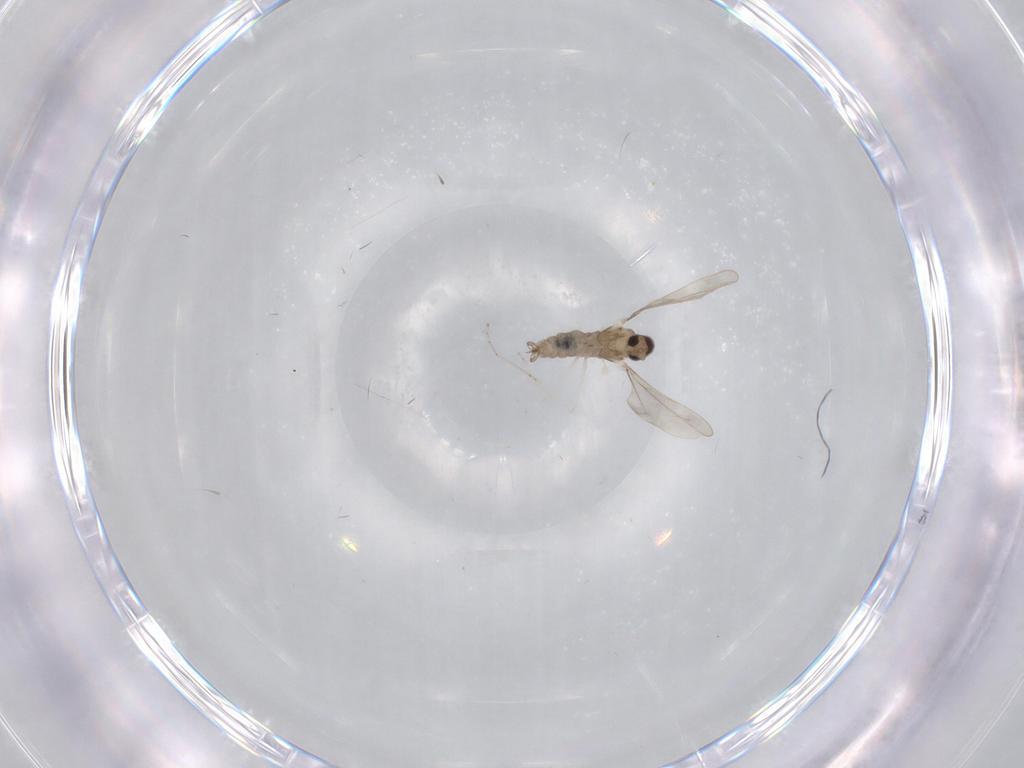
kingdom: Animalia
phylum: Arthropoda
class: Insecta
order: Diptera
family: Cecidomyiidae
